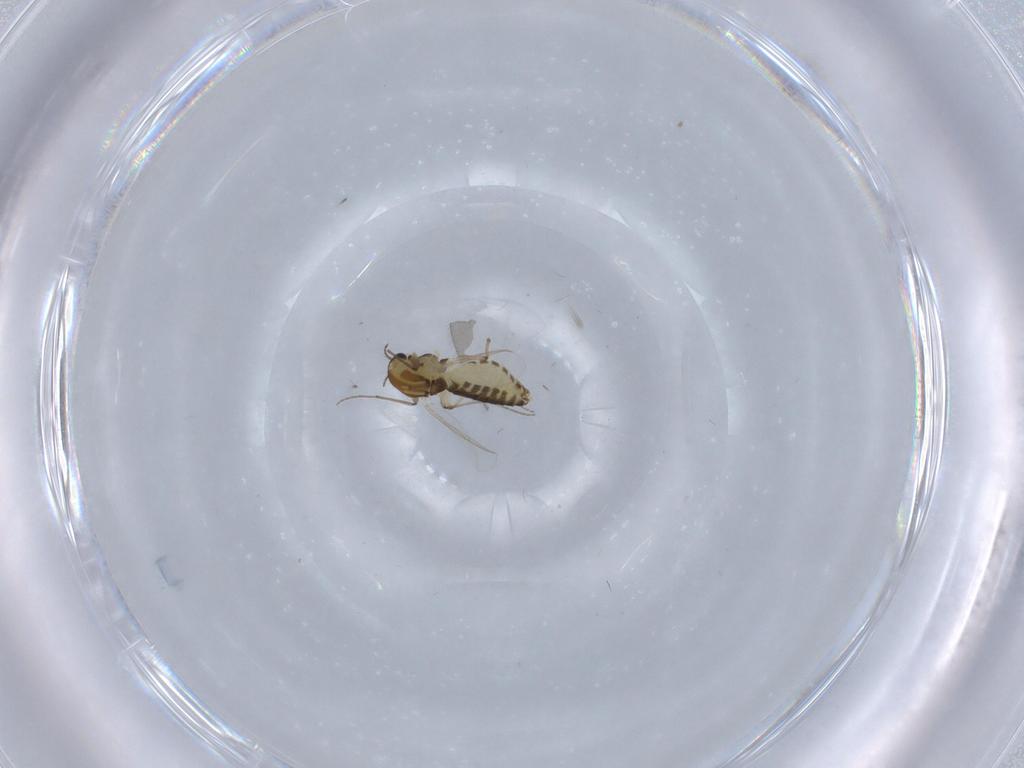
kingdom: Animalia
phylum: Arthropoda
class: Insecta
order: Diptera
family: Chironomidae
